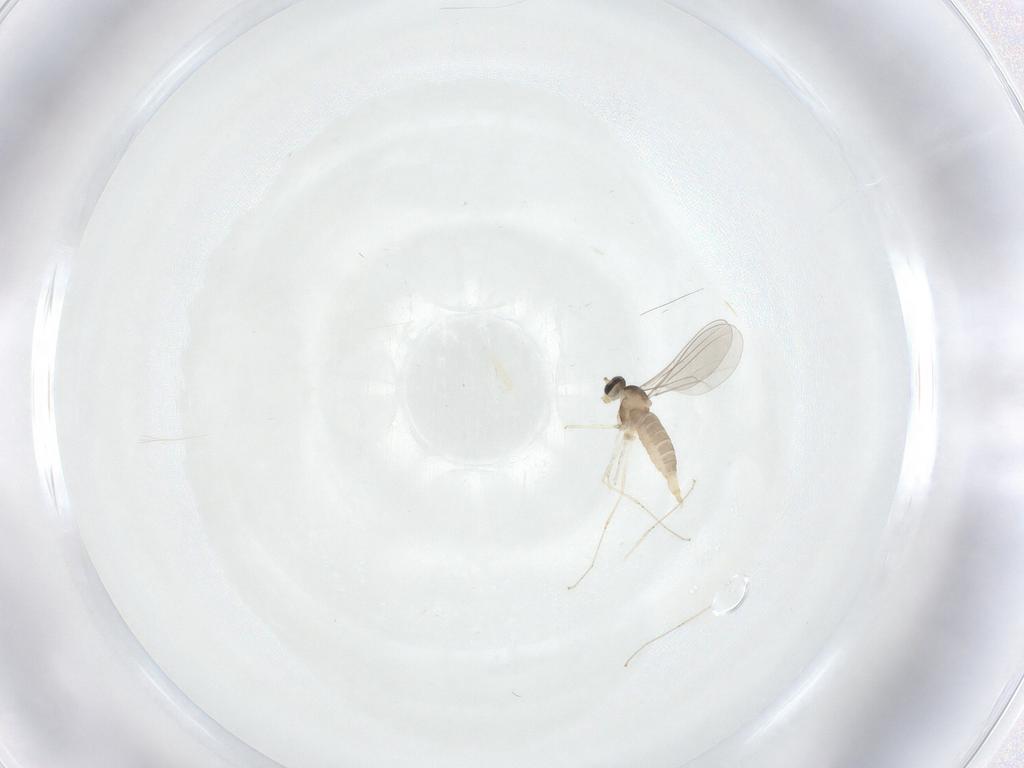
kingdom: Animalia
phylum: Arthropoda
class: Insecta
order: Diptera
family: Cecidomyiidae
